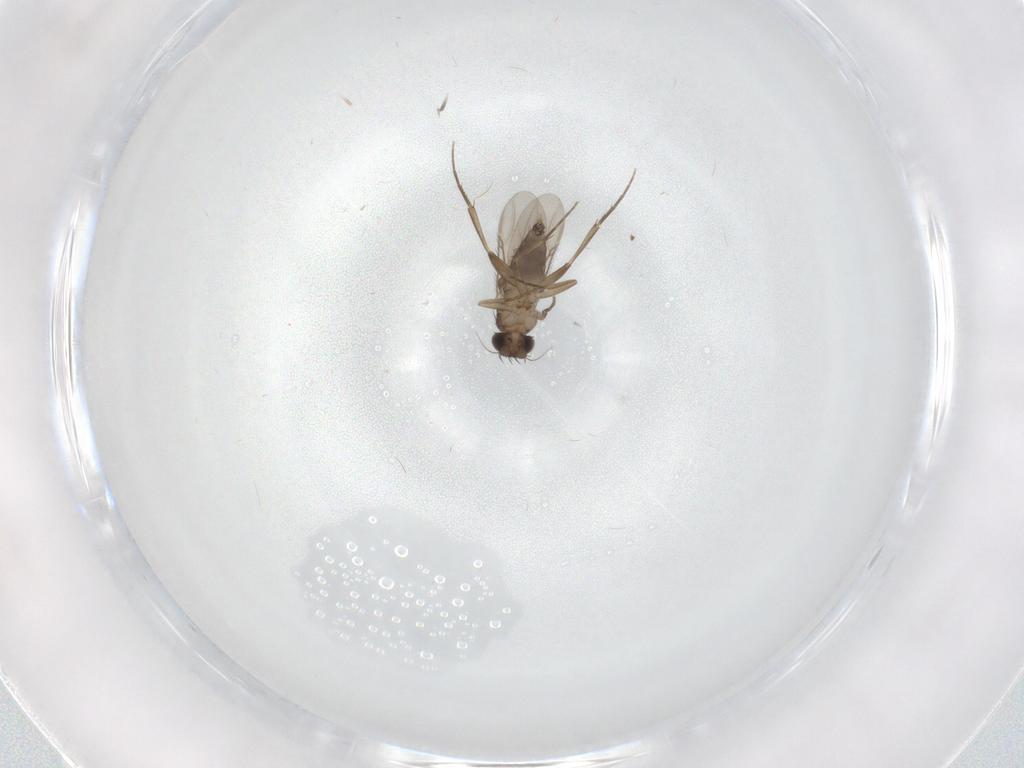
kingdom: Animalia
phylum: Arthropoda
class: Insecta
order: Diptera
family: Phoridae
